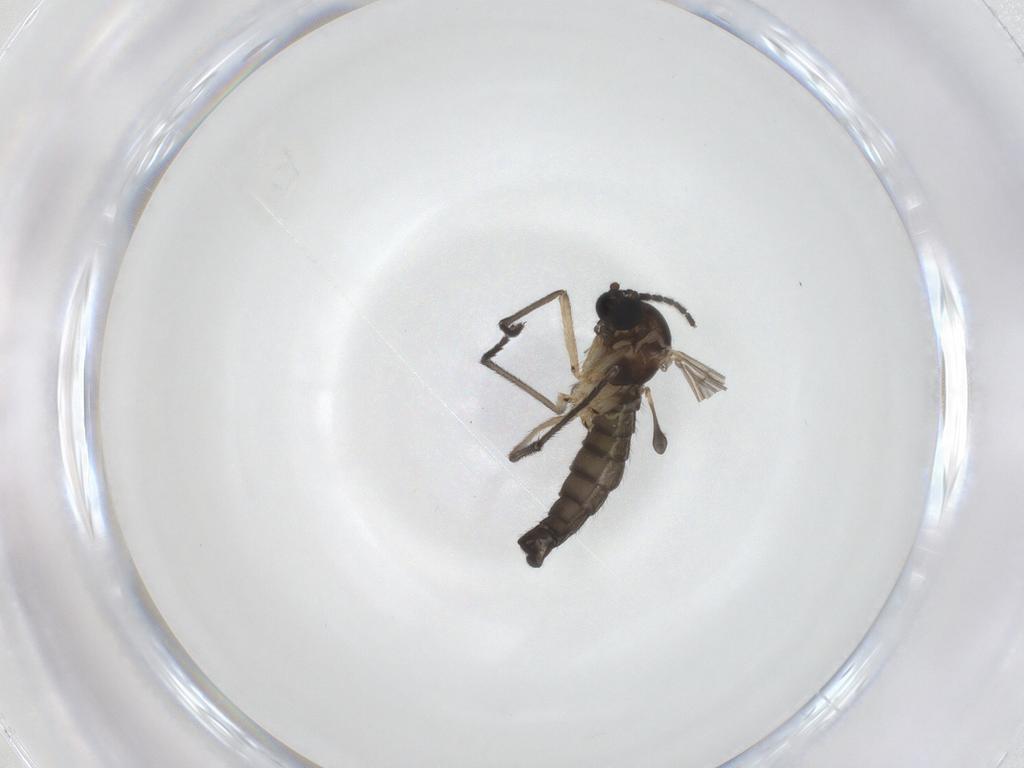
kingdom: Animalia
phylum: Arthropoda
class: Insecta
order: Diptera
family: Sciaridae
